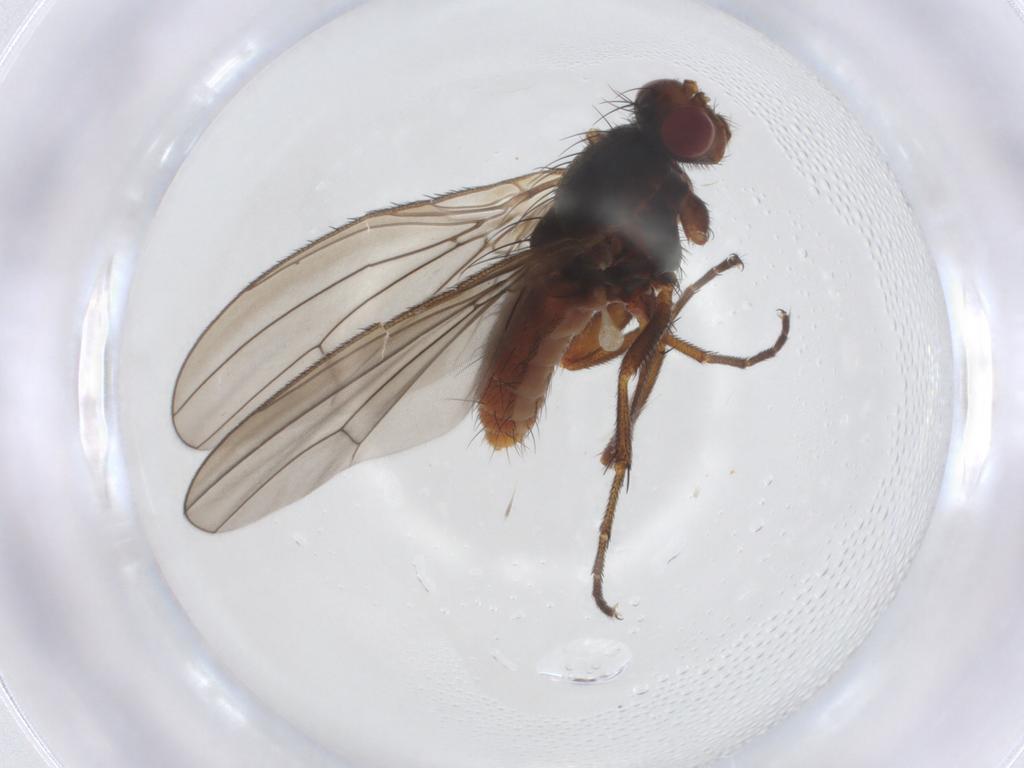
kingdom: Animalia
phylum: Arthropoda
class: Insecta
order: Diptera
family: Heleomyzidae
